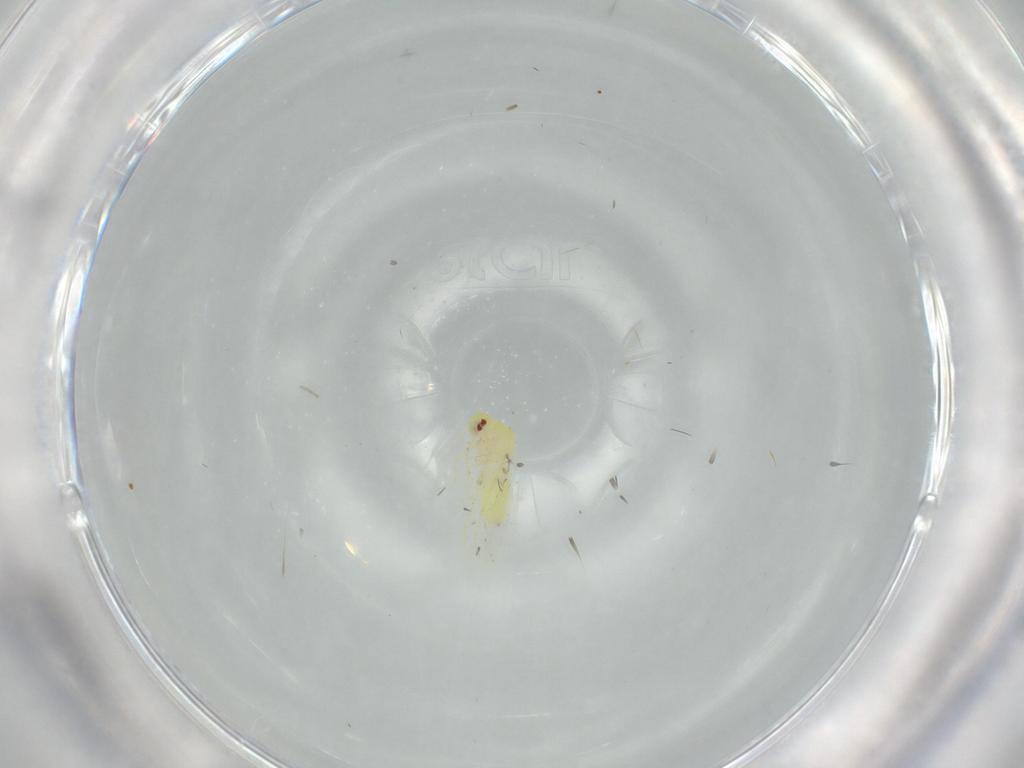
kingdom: Animalia
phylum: Arthropoda
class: Insecta
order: Hemiptera
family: Aleyrodidae
